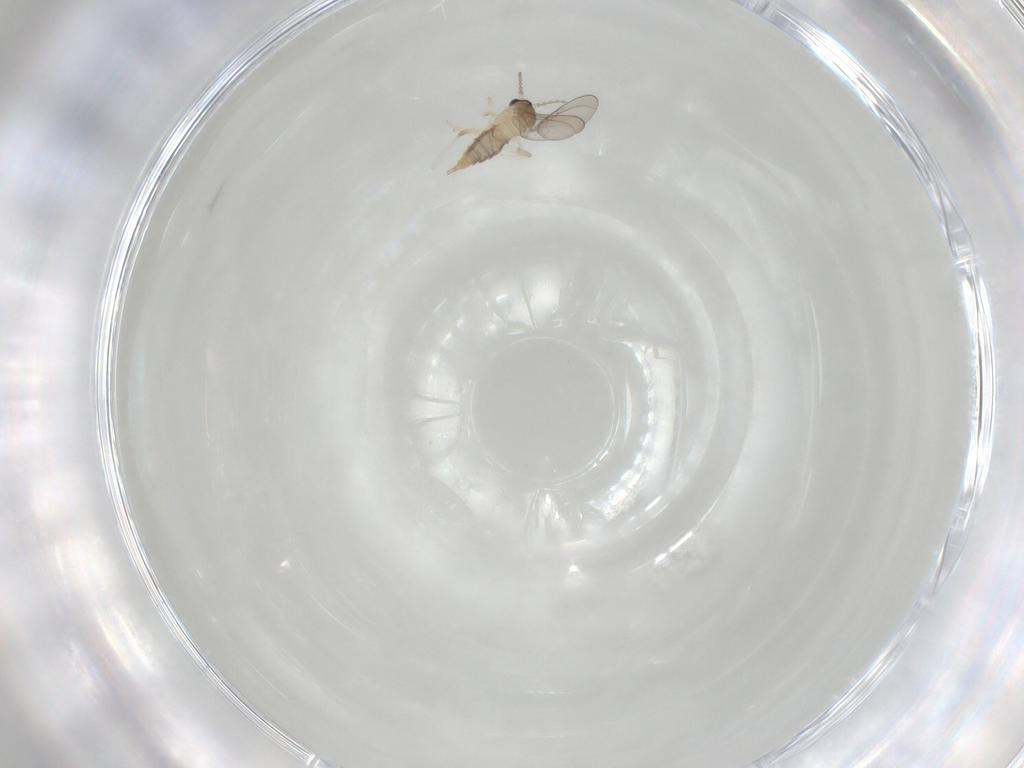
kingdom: Animalia
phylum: Arthropoda
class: Insecta
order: Diptera
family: Cecidomyiidae
